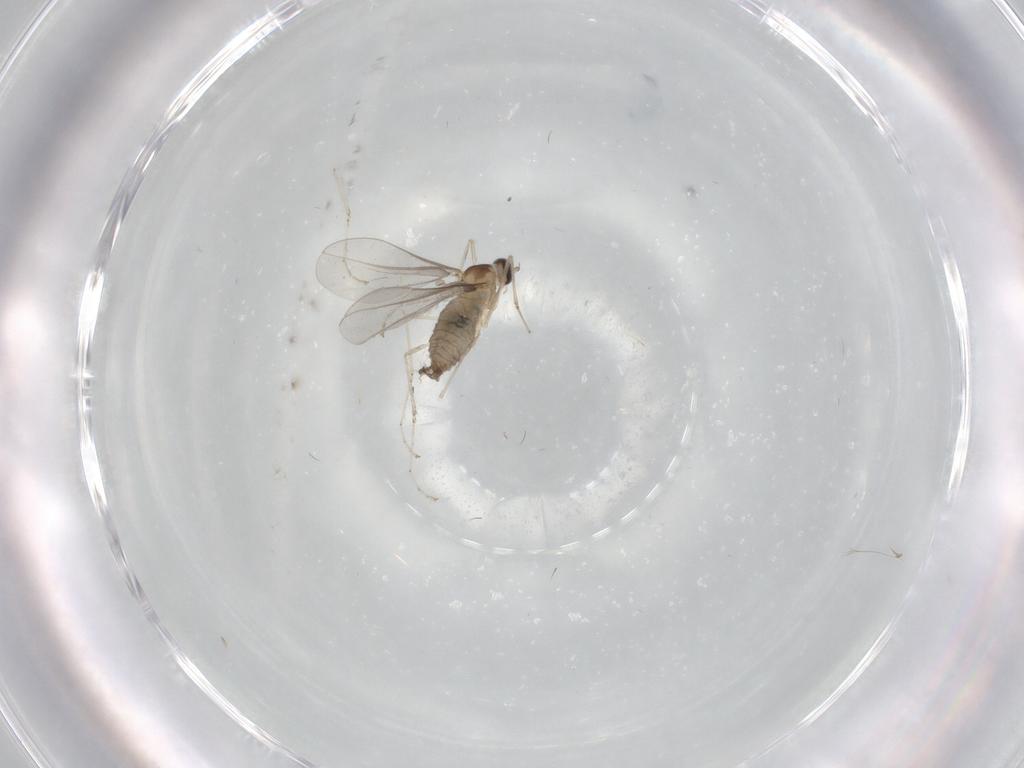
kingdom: Animalia
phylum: Arthropoda
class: Insecta
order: Diptera
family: Cecidomyiidae
